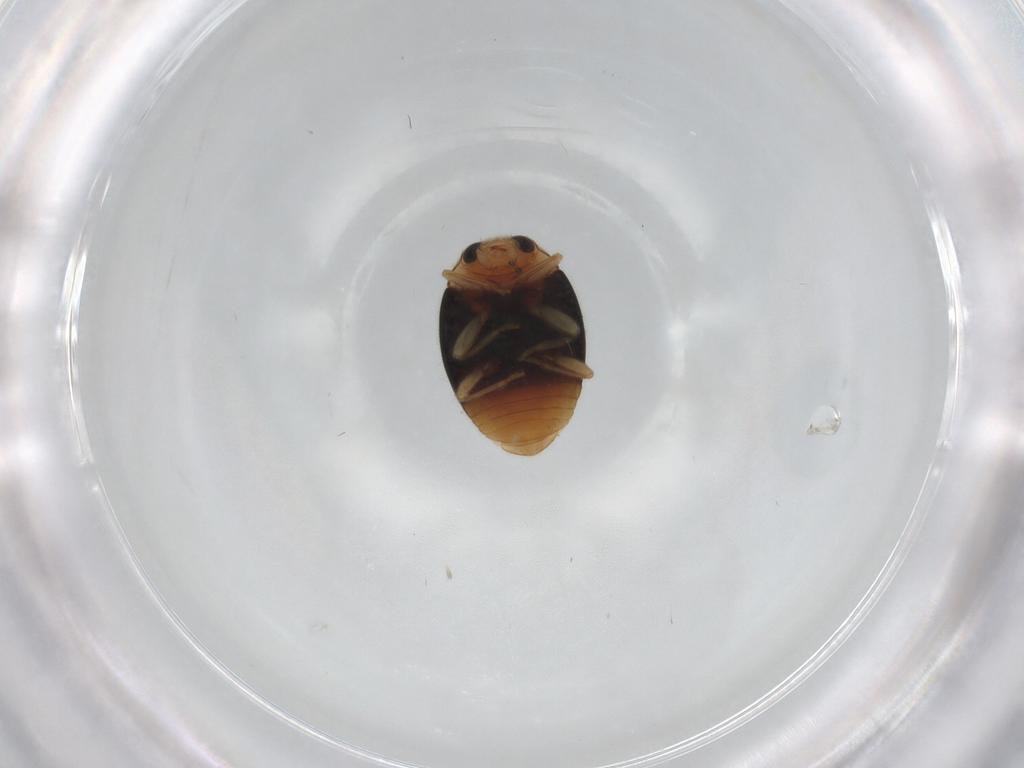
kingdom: Animalia
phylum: Arthropoda
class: Insecta
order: Coleoptera
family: Coccinellidae
